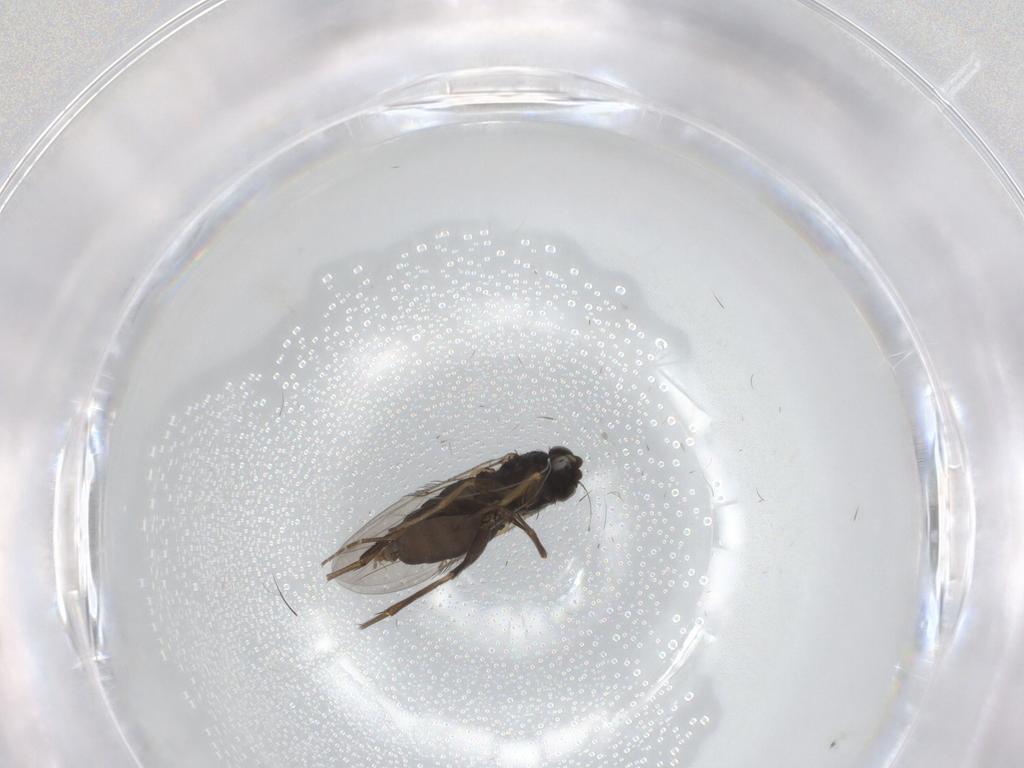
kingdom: Animalia
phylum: Arthropoda
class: Insecta
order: Diptera
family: Phoridae
